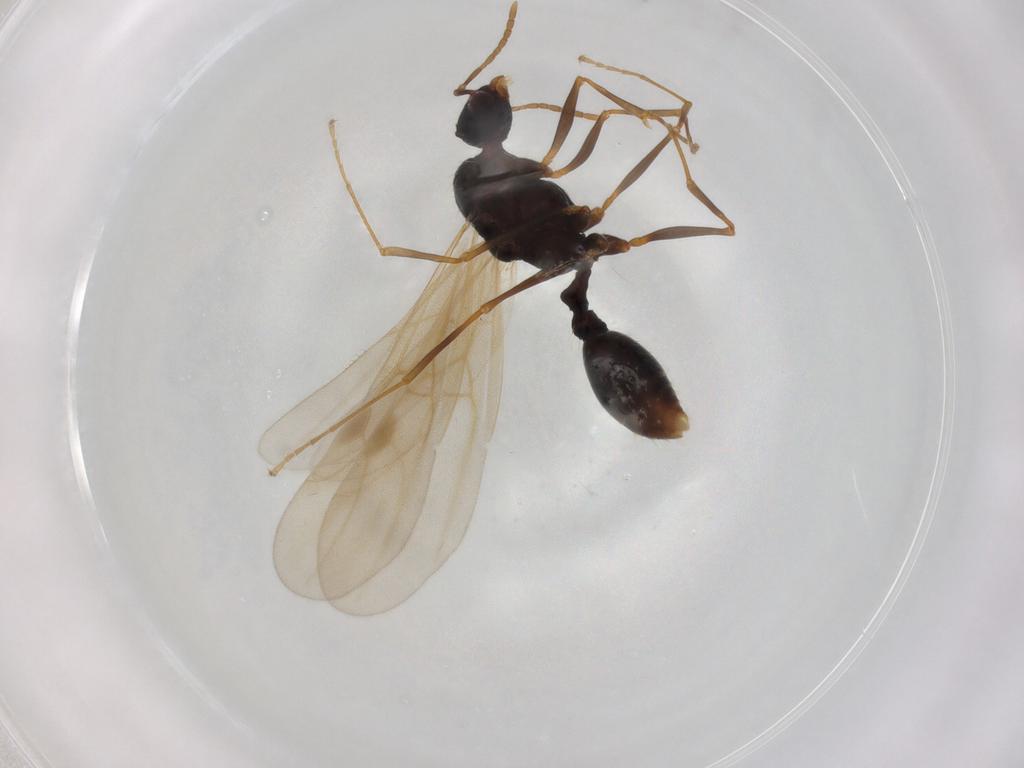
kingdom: Animalia
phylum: Arthropoda
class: Insecta
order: Hymenoptera
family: Formicidae
